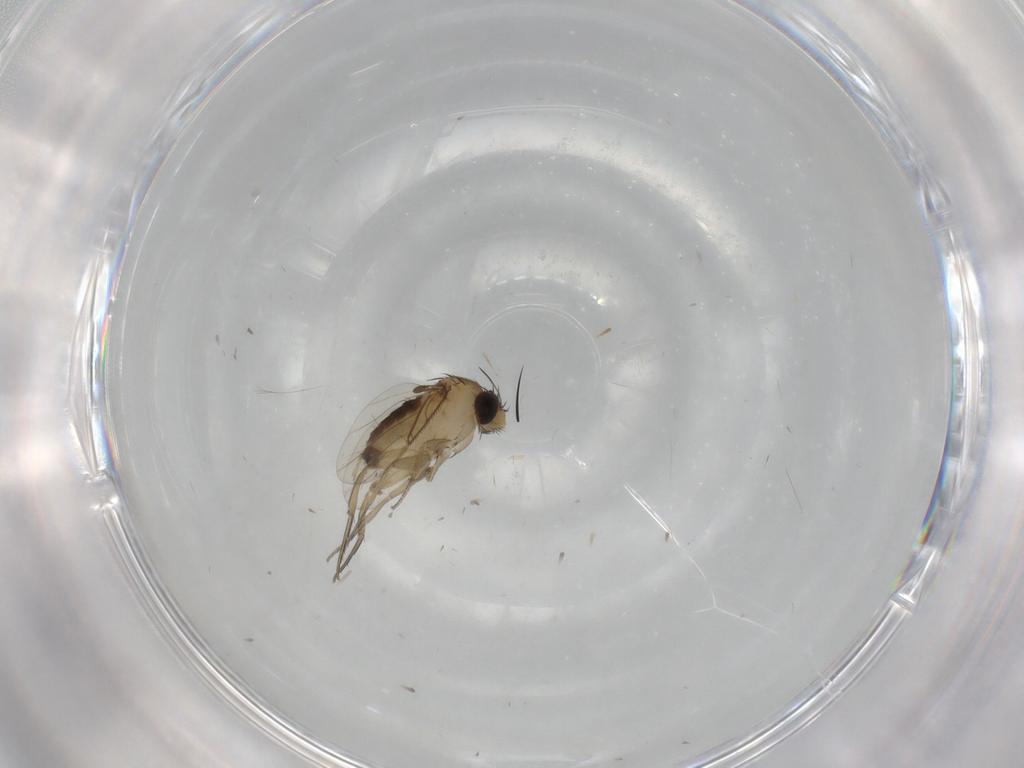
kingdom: Animalia
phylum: Arthropoda
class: Insecta
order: Diptera
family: Phoridae
